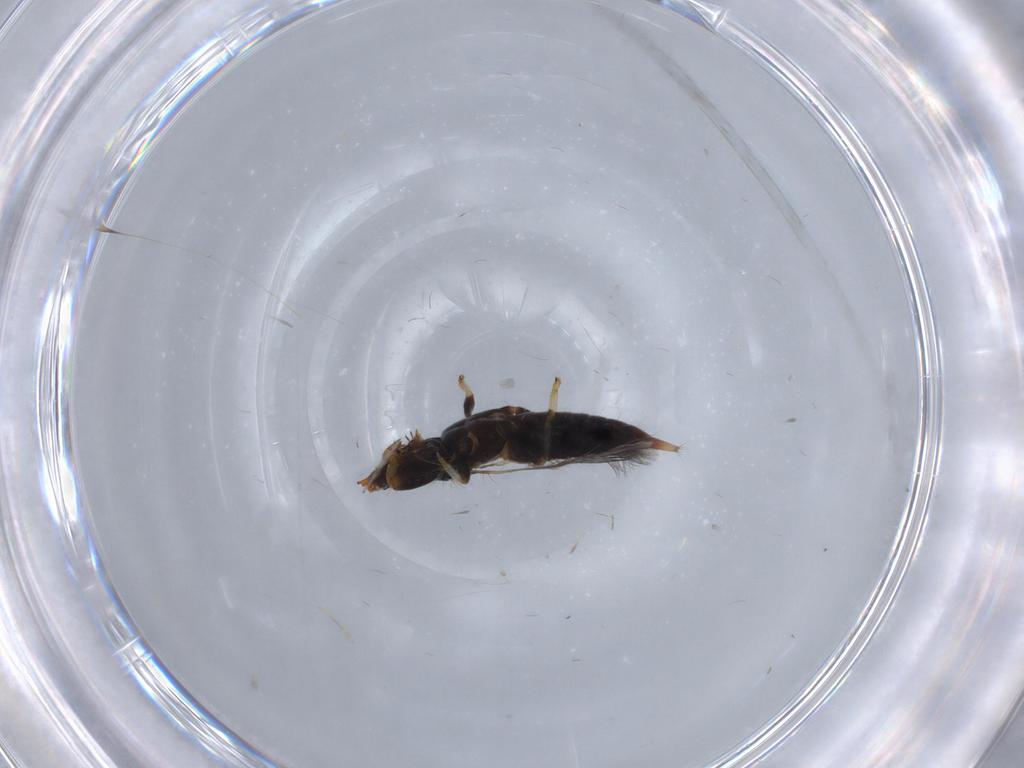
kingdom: Animalia
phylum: Arthropoda
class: Insecta
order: Thysanoptera
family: Phlaeothripidae
